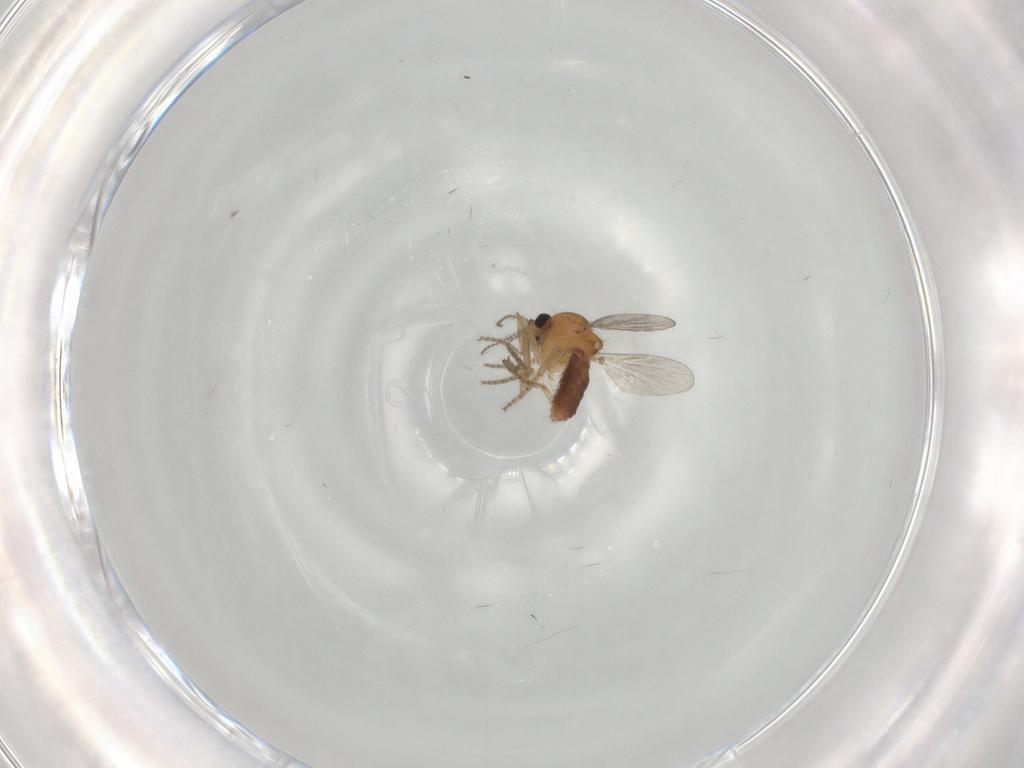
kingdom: Animalia
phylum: Arthropoda
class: Insecta
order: Diptera
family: Ceratopogonidae
